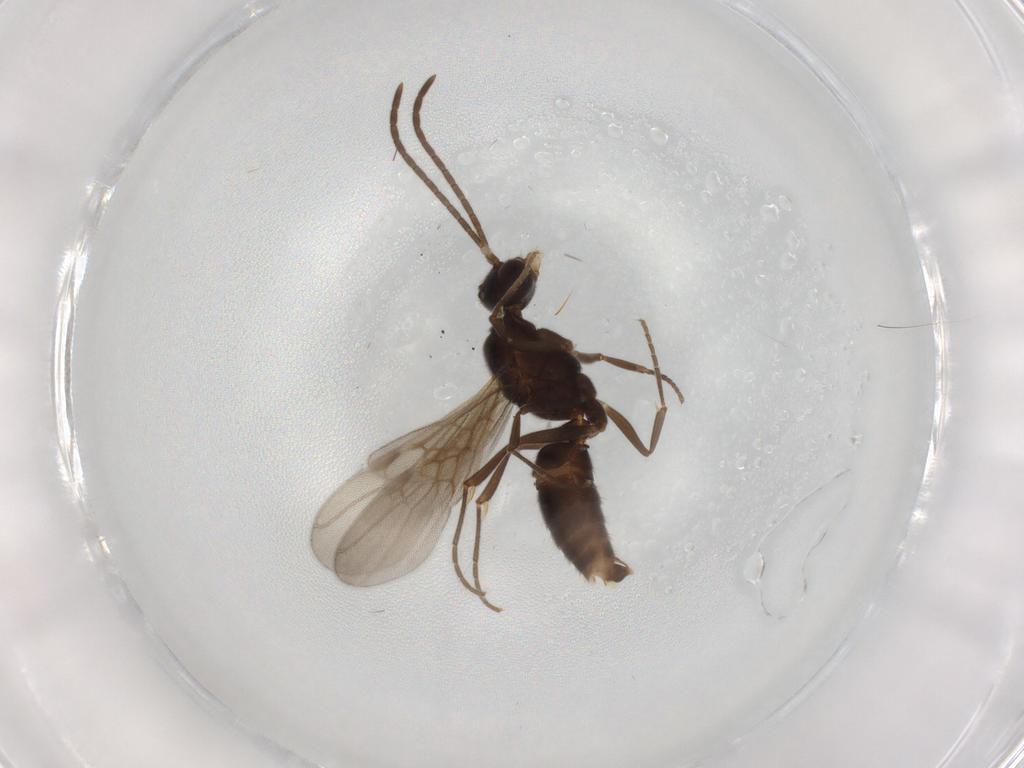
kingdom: Animalia
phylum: Arthropoda
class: Insecta
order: Hymenoptera
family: Formicidae
